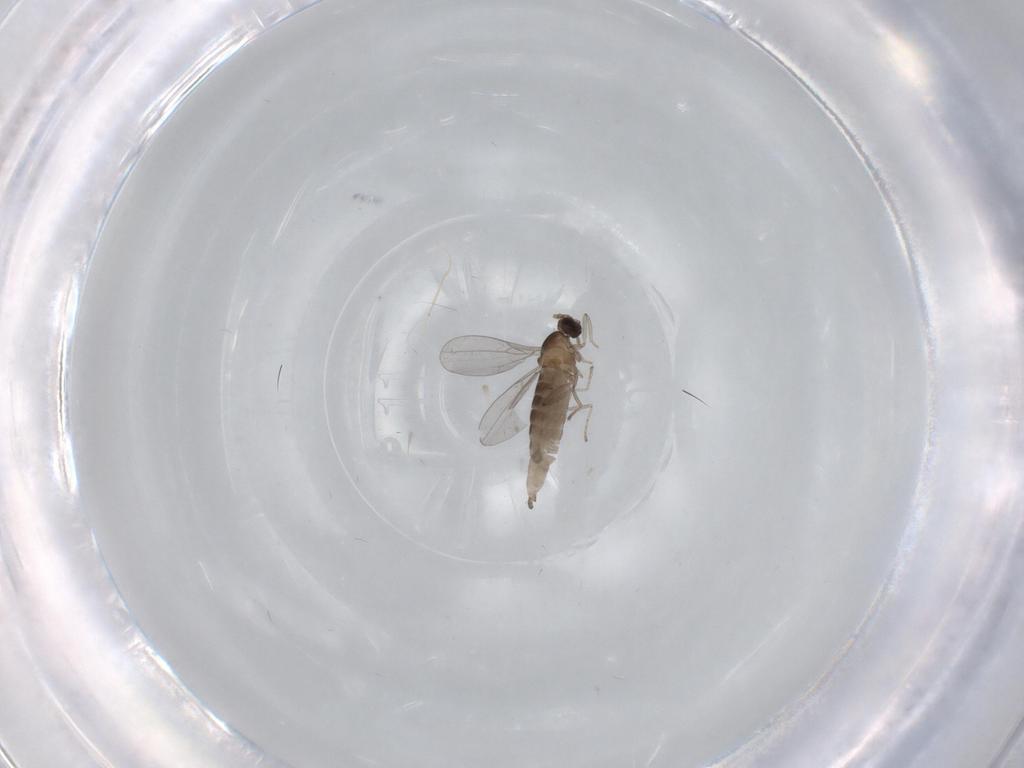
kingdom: Animalia
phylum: Arthropoda
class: Insecta
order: Diptera
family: Cecidomyiidae
